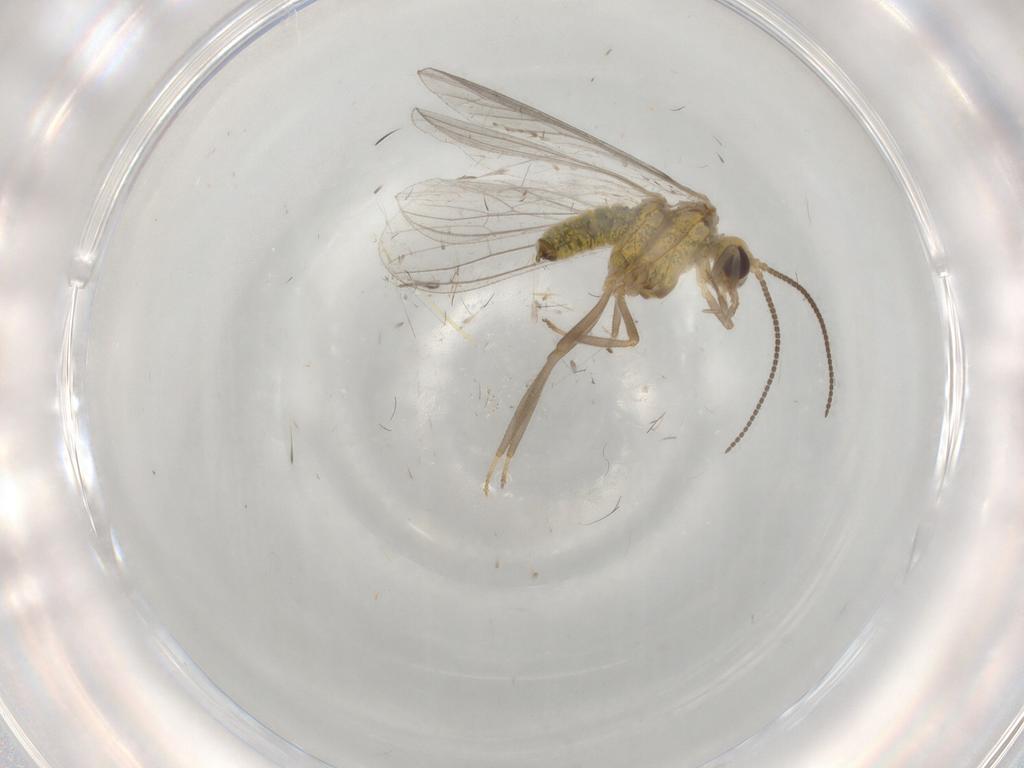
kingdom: Animalia
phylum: Arthropoda
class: Insecta
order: Neuroptera
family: Coniopterygidae
